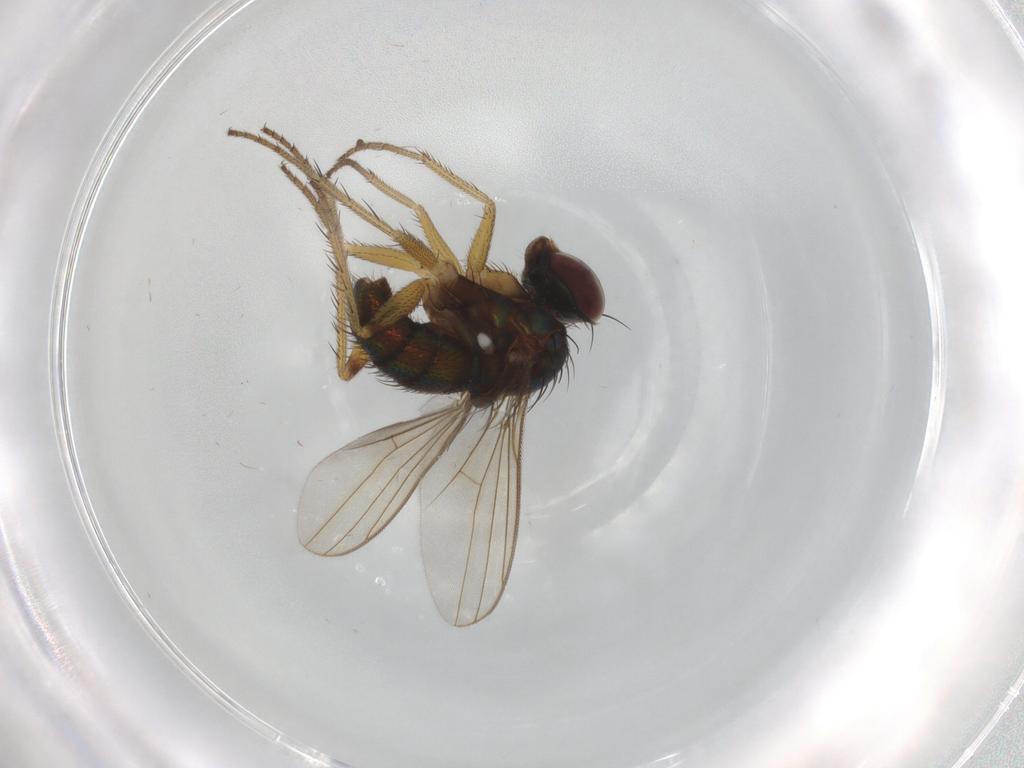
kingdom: Animalia
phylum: Arthropoda
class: Insecta
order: Diptera
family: Dolichopodidae
